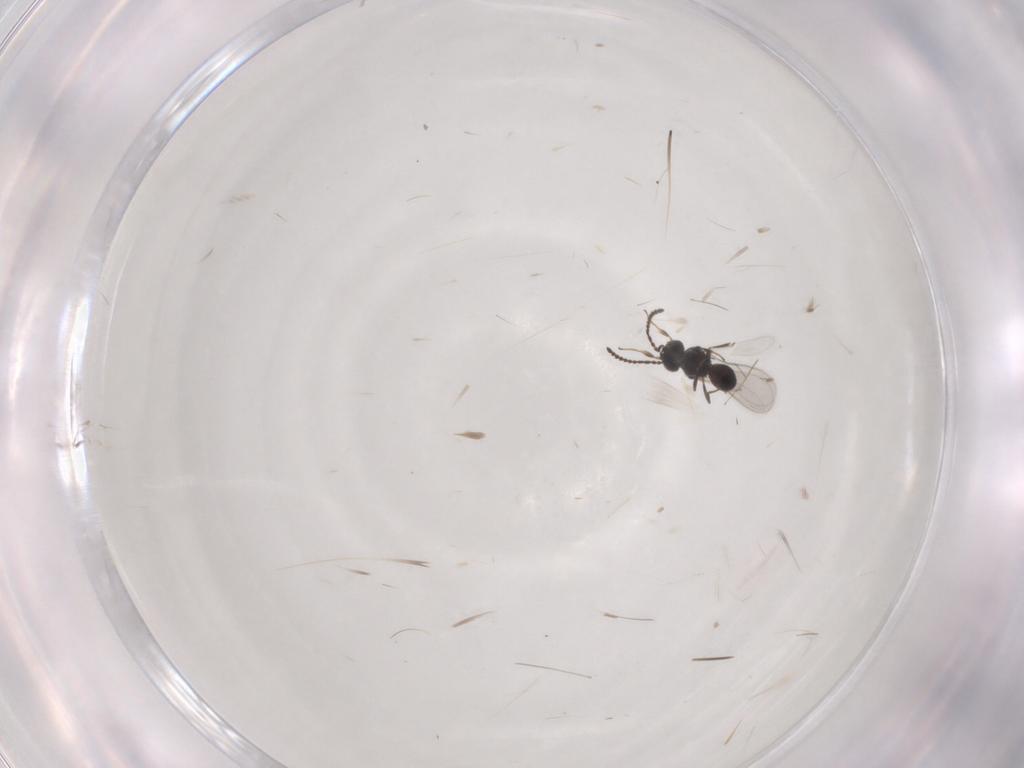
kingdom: Animalia
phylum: Arthropoda
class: Insecta
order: Hymenoptera
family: Scelionidae
